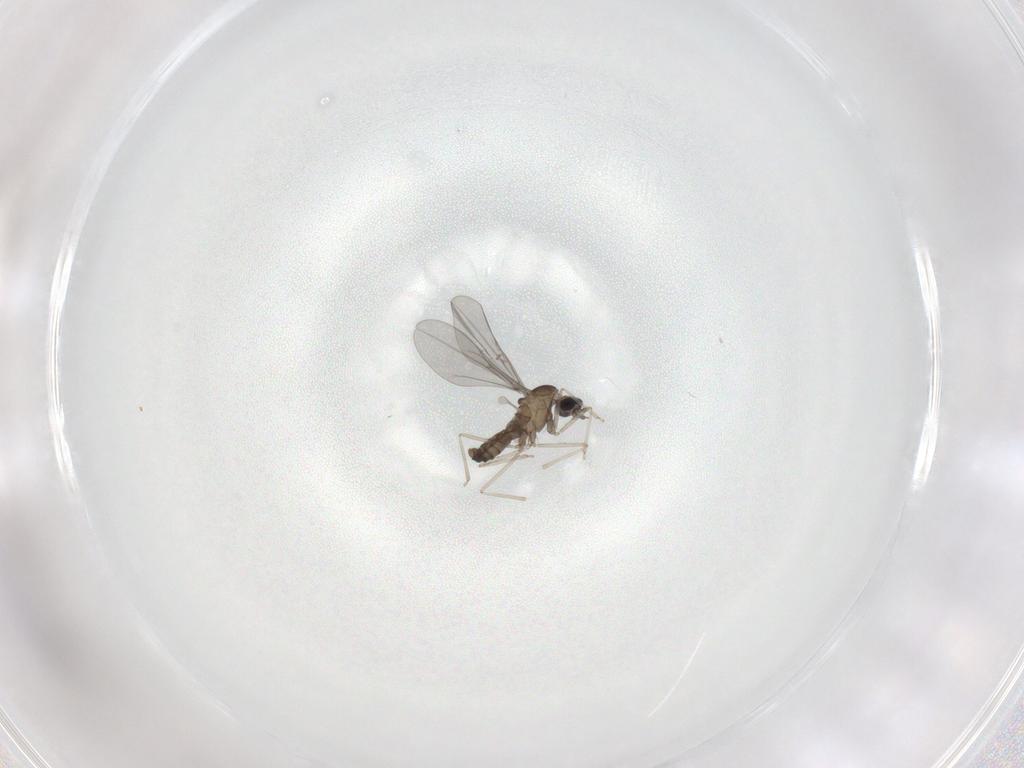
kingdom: Animalia
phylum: Arthropoda
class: Insecta
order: Diptera
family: Cecidomyiidae
